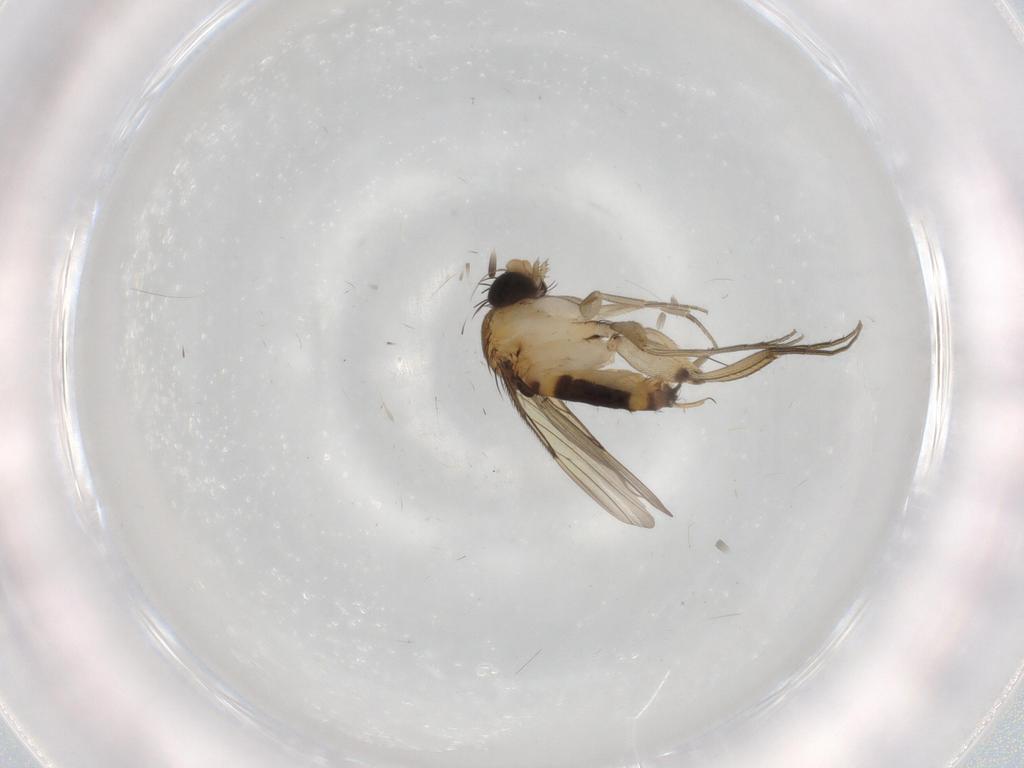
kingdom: Animalia
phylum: Arthropoda
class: Insecta
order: Diptera
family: Phoridae
